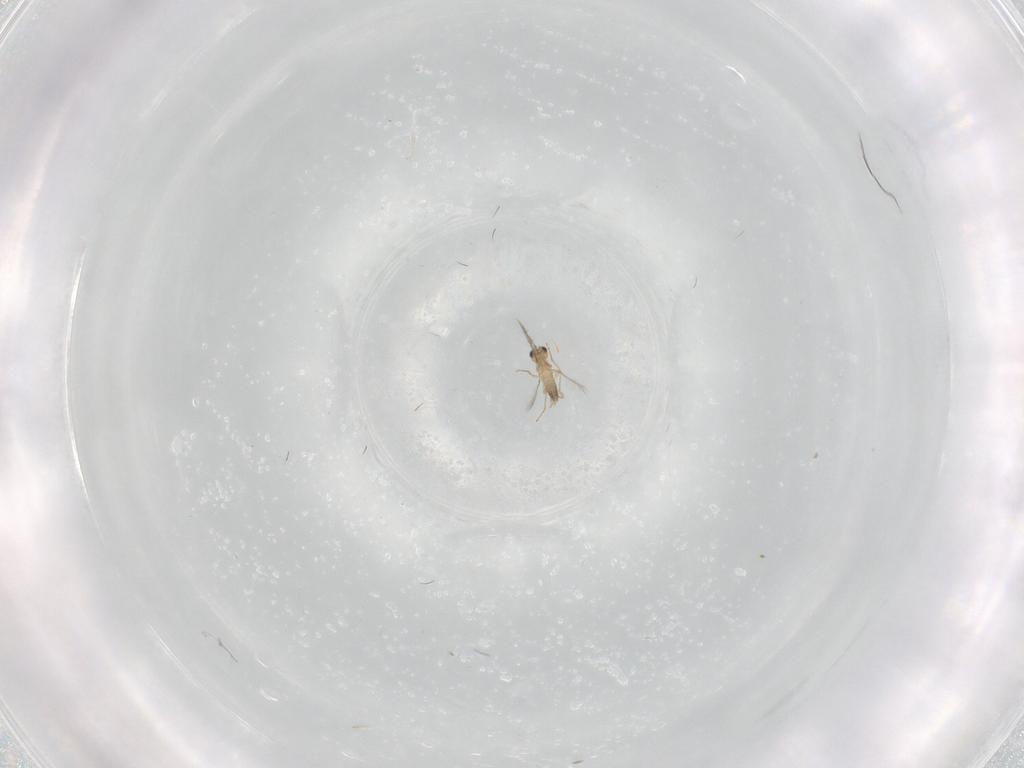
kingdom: Animalia
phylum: Arthropoda
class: Insecta
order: Hymenoptera
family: Mymaridae
